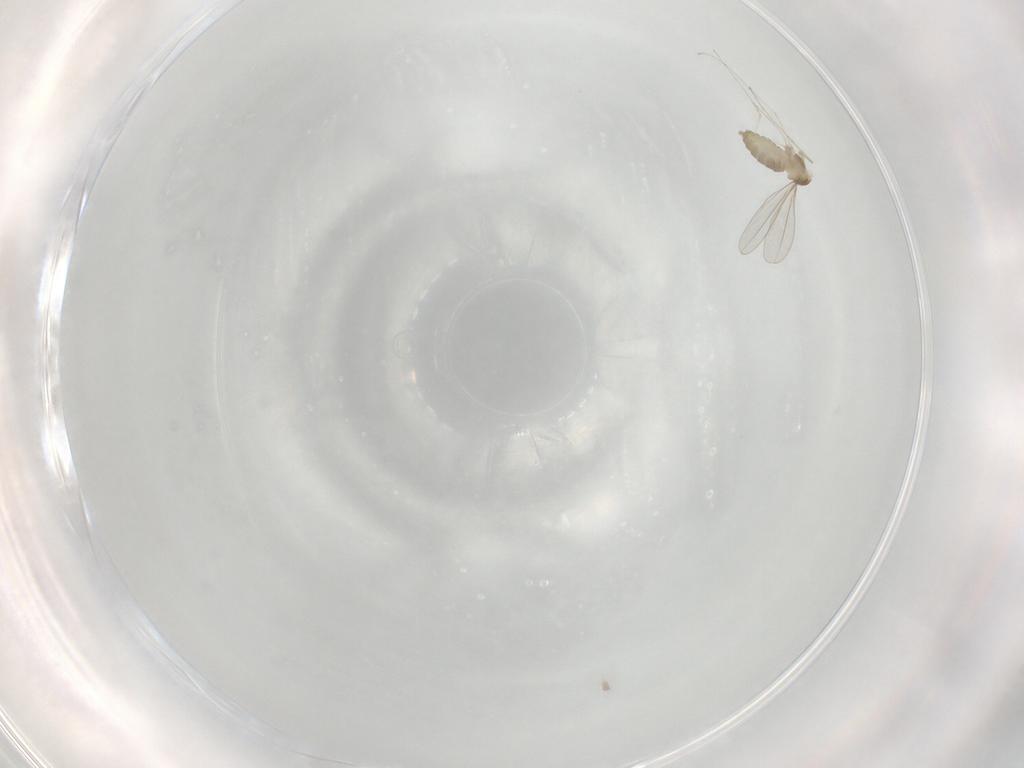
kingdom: Animalia
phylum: Arthropoda
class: Insecta
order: Diptera
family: Cecidomyiidae
